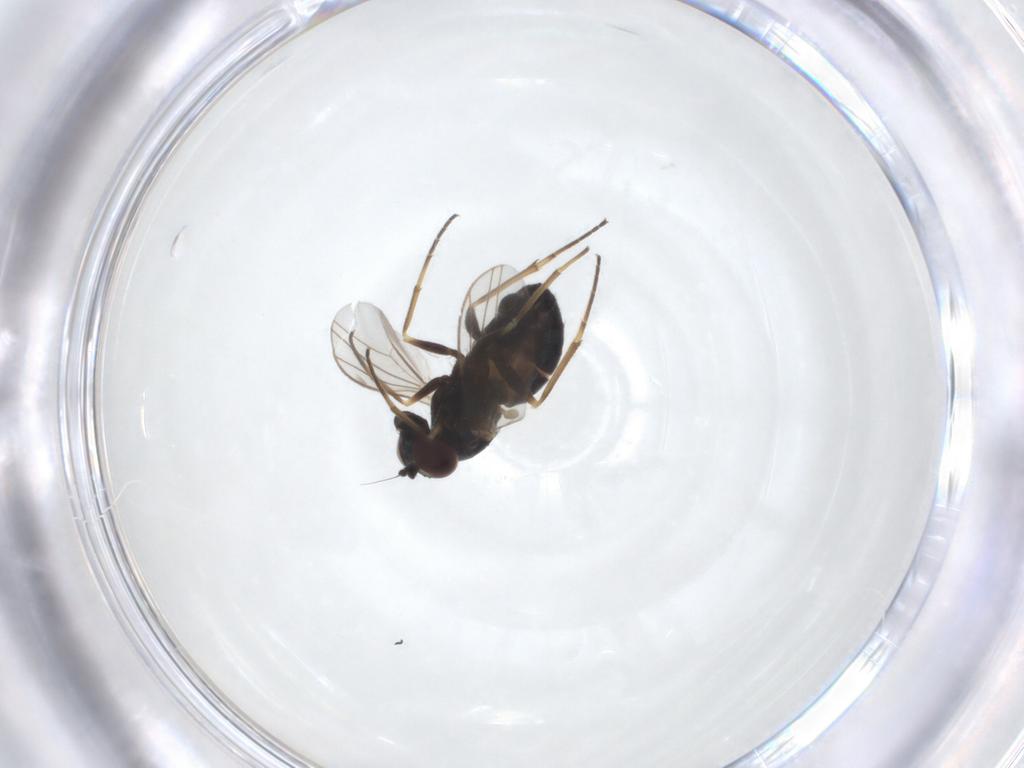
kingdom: Animalia
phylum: Arthropoda
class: Insecta
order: Diptera
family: Dolichopodidae
